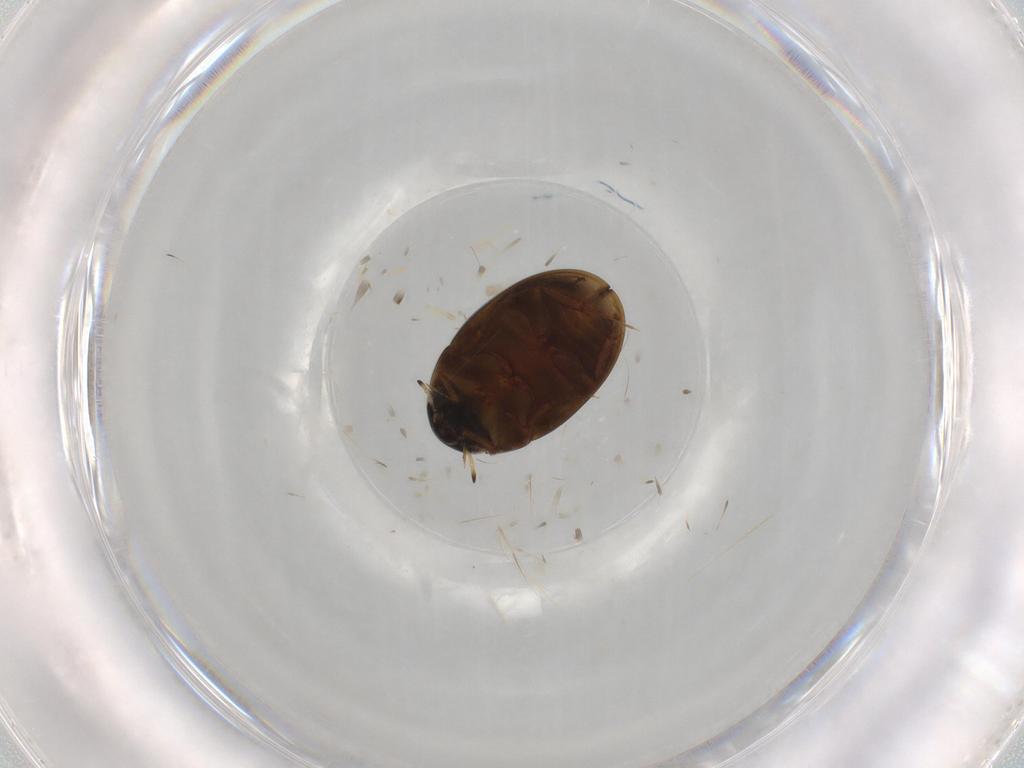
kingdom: Animalia
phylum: Arthropoda
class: Insecta
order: Coleoptera
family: Hydrophilidae
